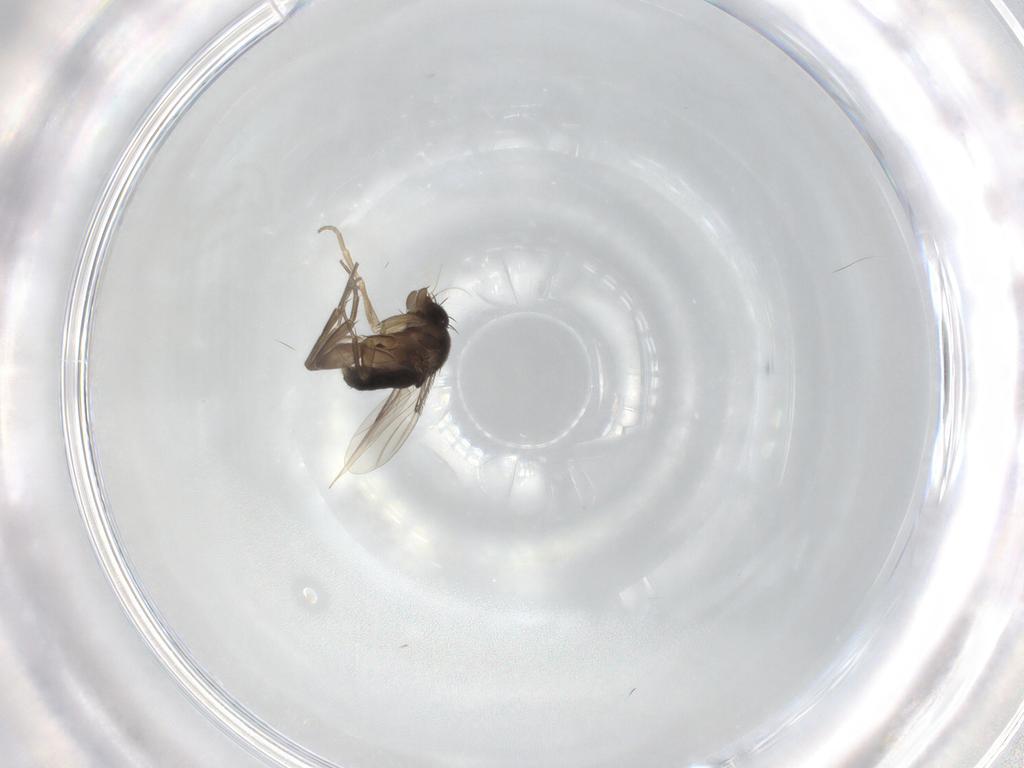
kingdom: Animalia
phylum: Arthropoda
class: Insecta
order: Diptera
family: Phoridae
